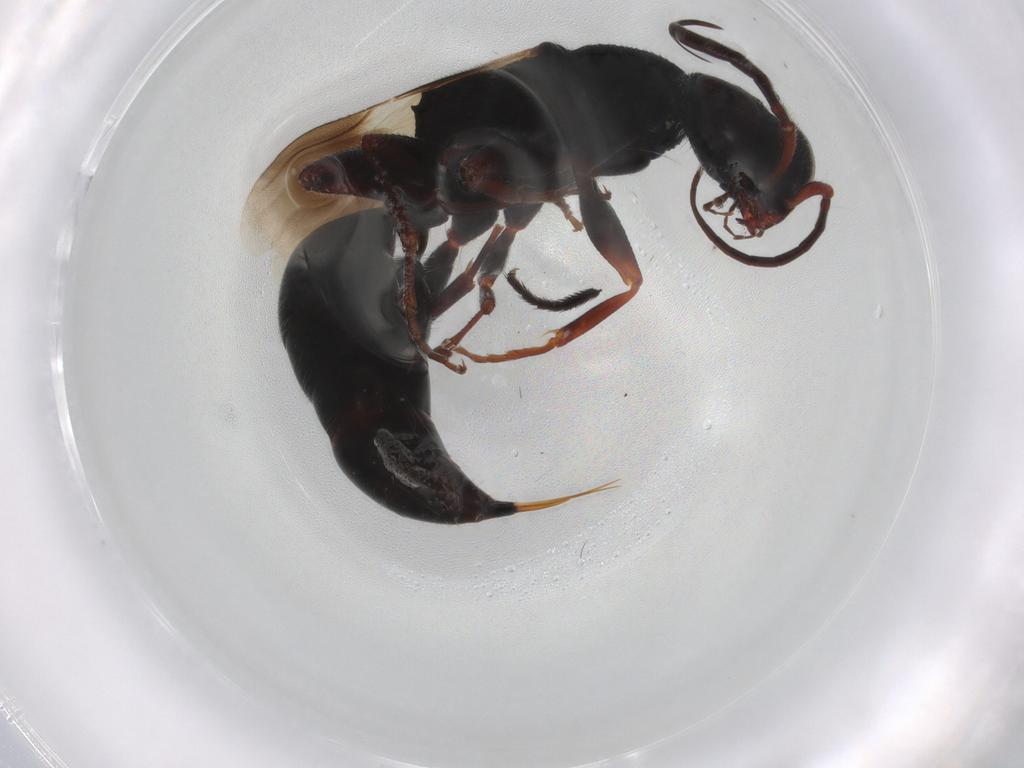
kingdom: Animalia
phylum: Arthropoda
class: Insecta
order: Hymenoptera
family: Bethylidae
